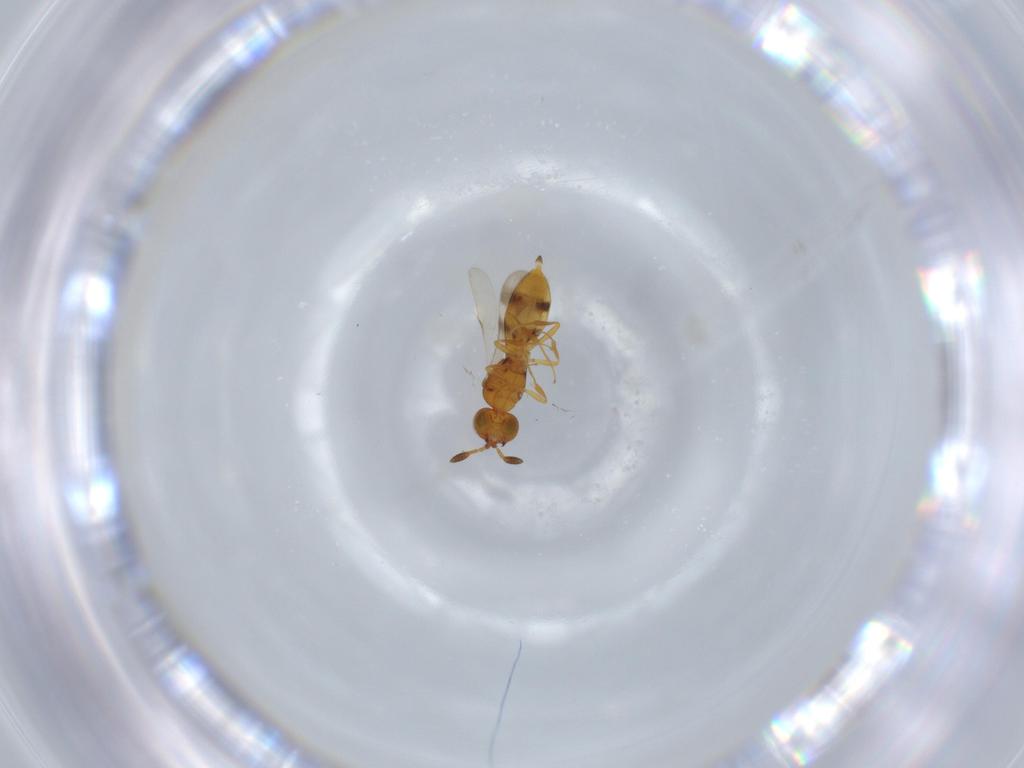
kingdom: Animalia
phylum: Arthropoda
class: Insecta
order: Hymenoptera
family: Scelionidae
